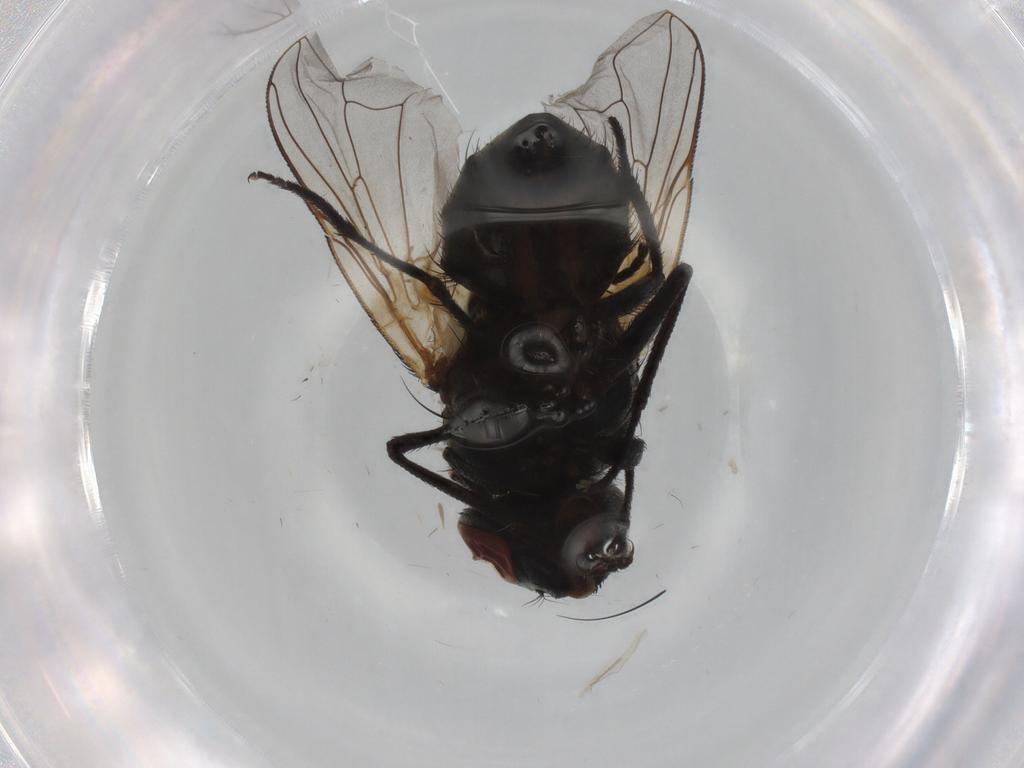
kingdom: Animalia
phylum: Arthropoda
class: Insecta
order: Diptera
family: Muscidae
